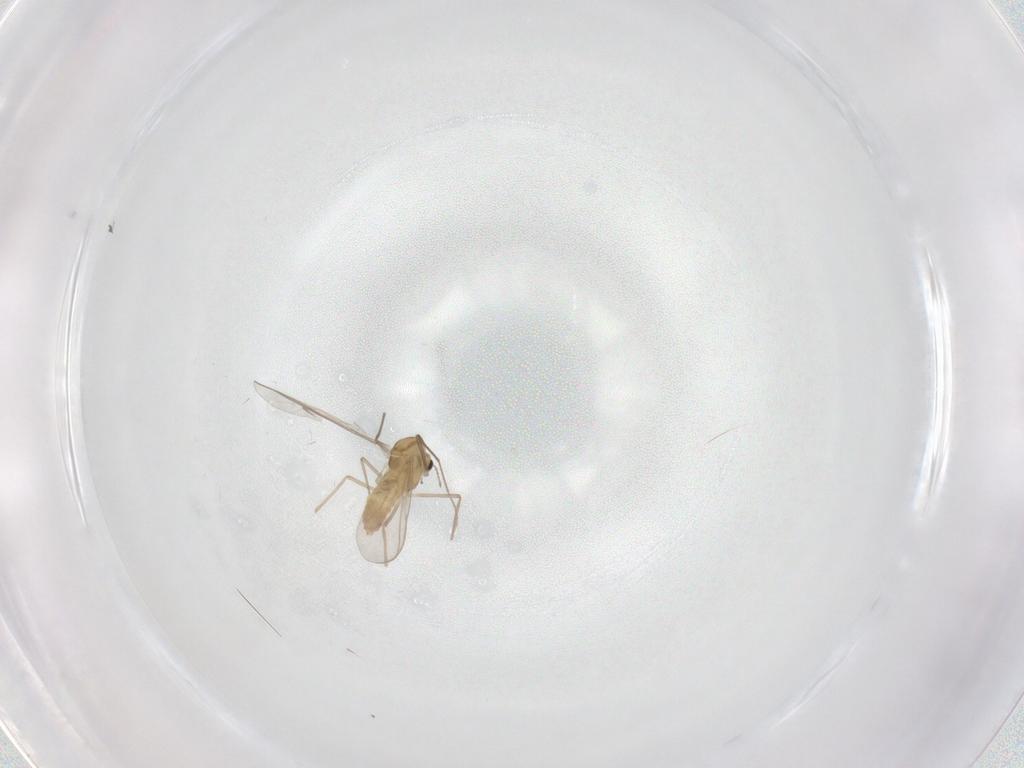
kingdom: Animalia
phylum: Arthropoda
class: Insecta
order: Diptera
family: Chironomidae
